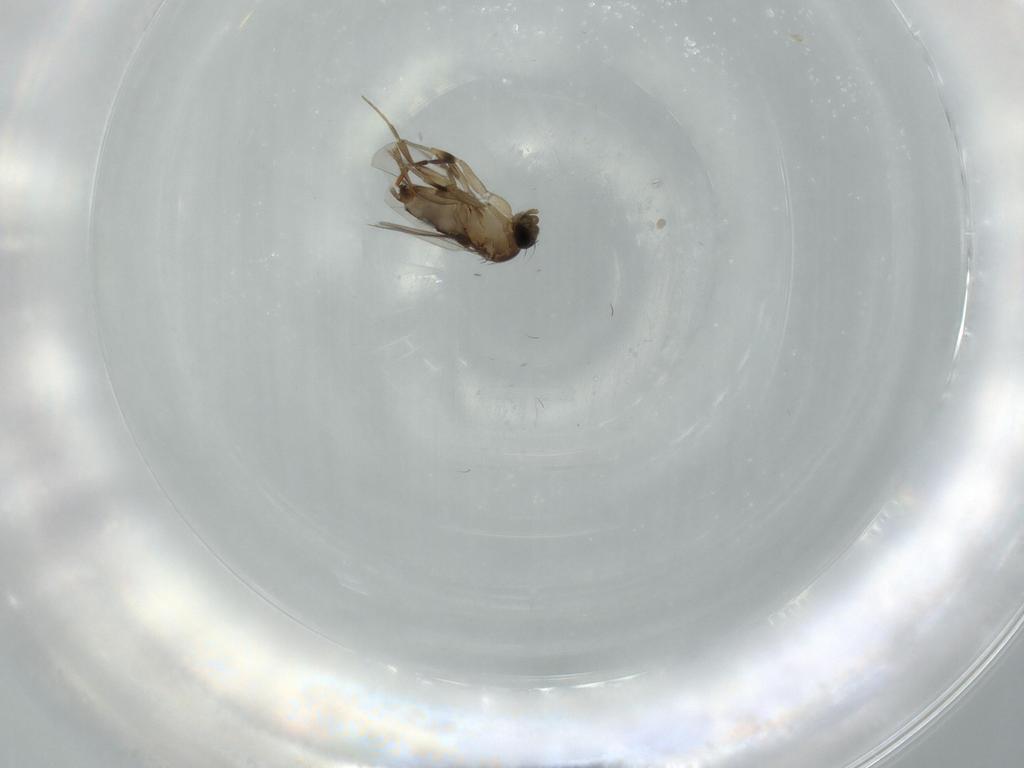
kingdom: Animalia
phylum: Arthropoda
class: Insecta
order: Diptera
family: Phoridae
